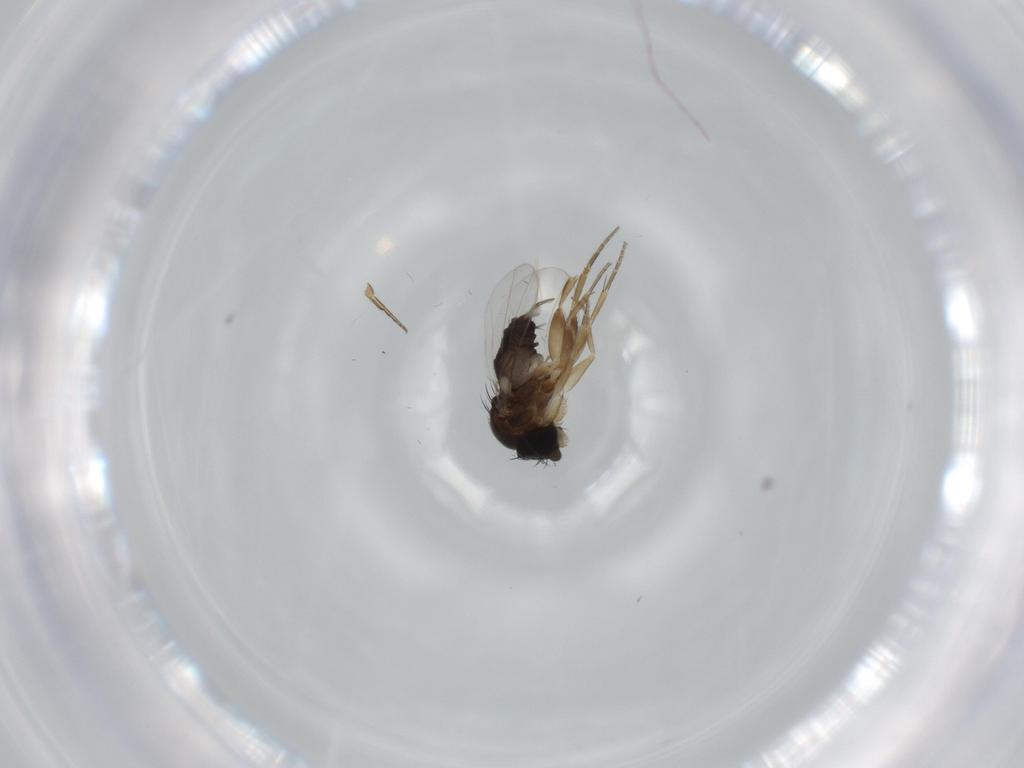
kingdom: Animalia
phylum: Arthropoda
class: Insecta
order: Diptera
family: Phoridae
